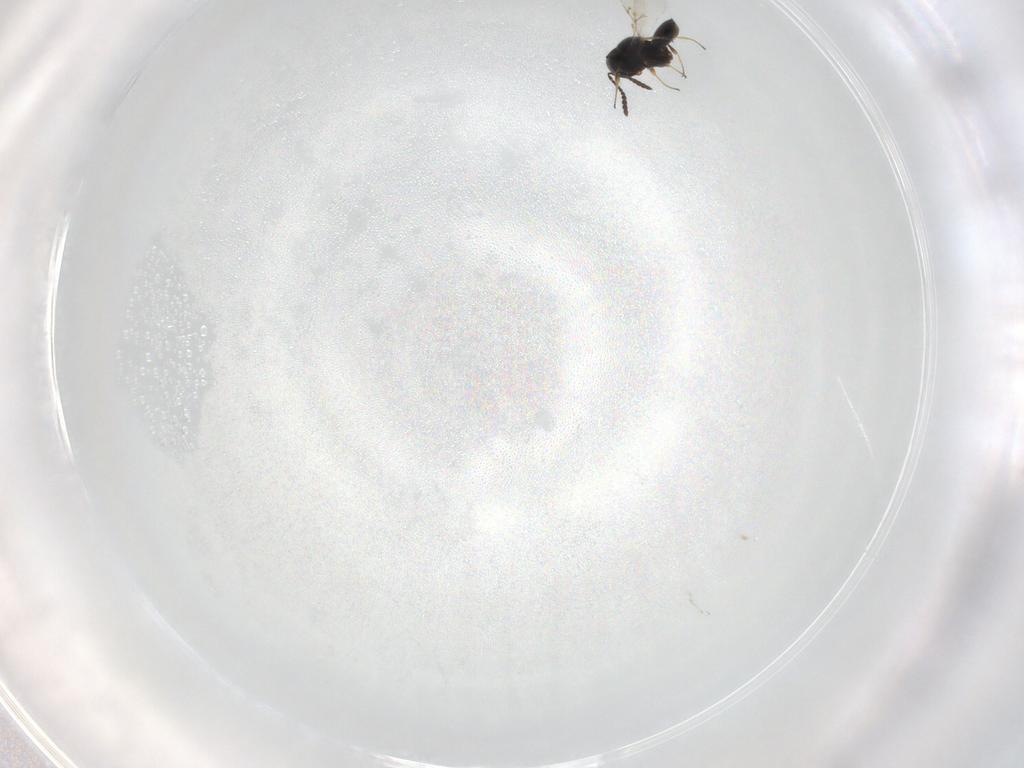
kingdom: Animalia
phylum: Arthropoda
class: Insecta
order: Hymenoptera
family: Scelionidae
